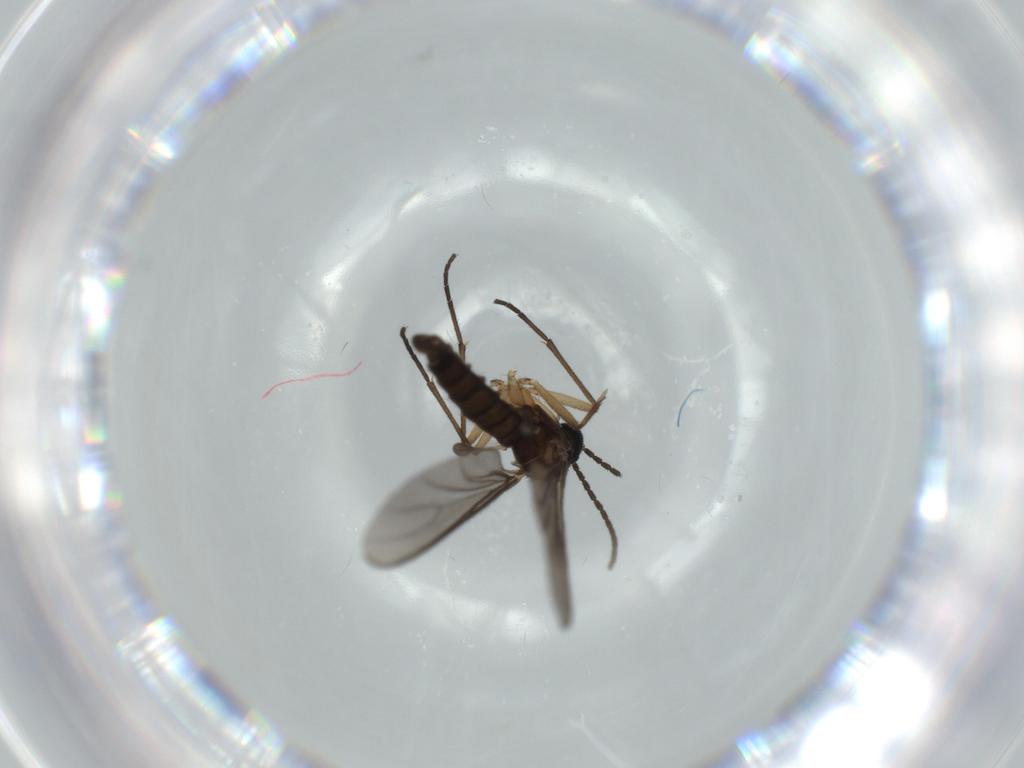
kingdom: Animalia
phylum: Arthropoda
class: Insecta
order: Diptera
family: Sciaridae
